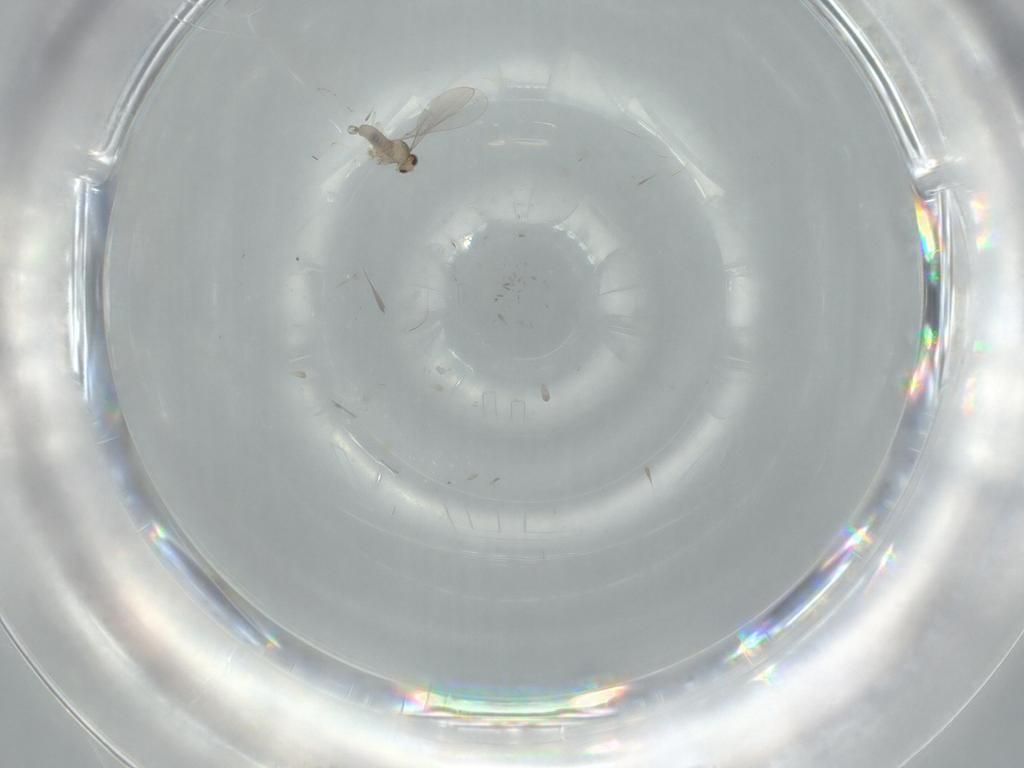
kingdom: Animalia
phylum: Arthropoda
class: Insecta
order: Diptera
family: Cecidomyiidae
